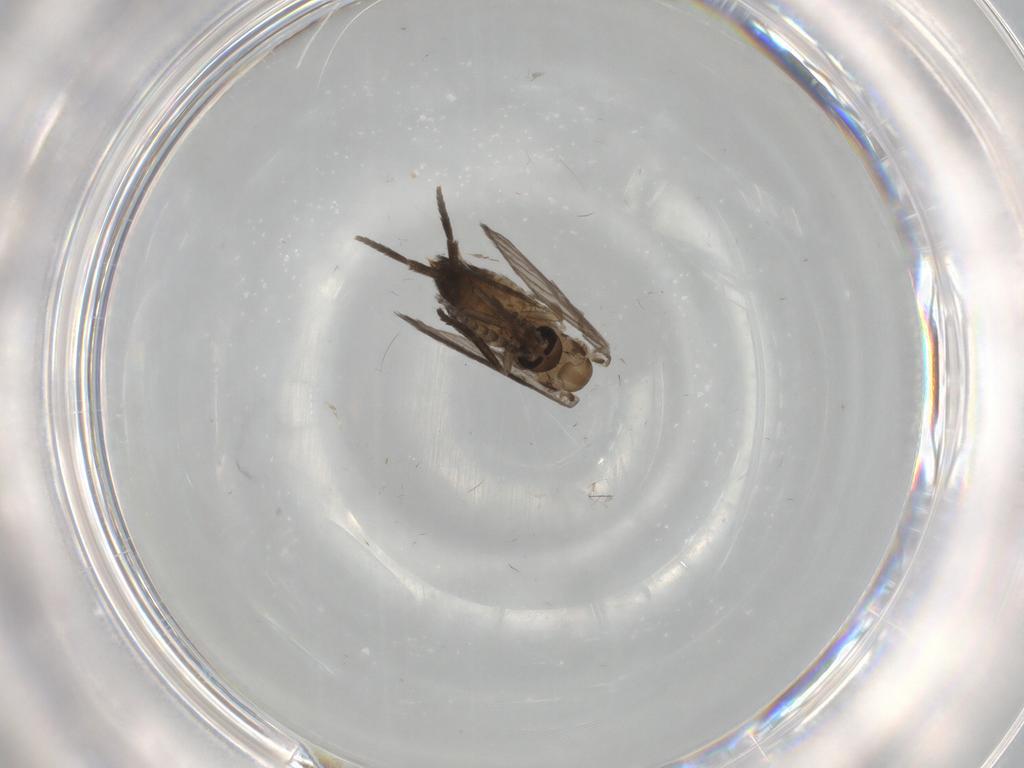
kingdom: Animalia
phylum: Arthropoda
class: Insecta
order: Diptera
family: Psychodidae
